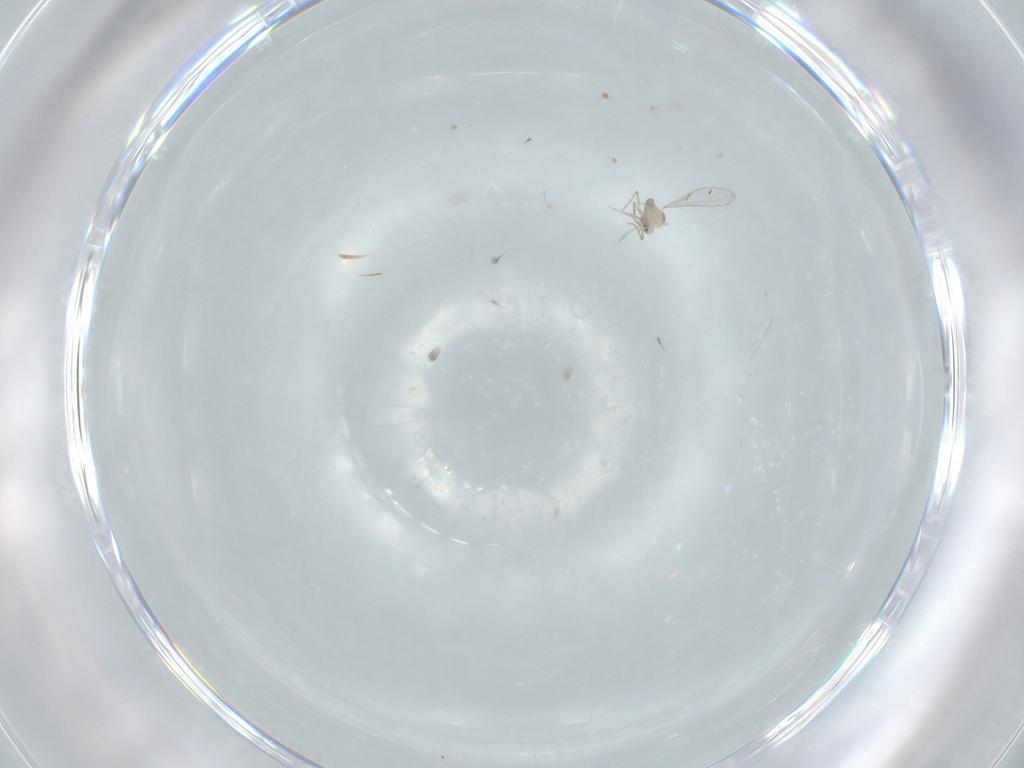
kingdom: Animalia
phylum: Arthropoda
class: Insecta
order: Diptera
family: Cecidomyiidae
